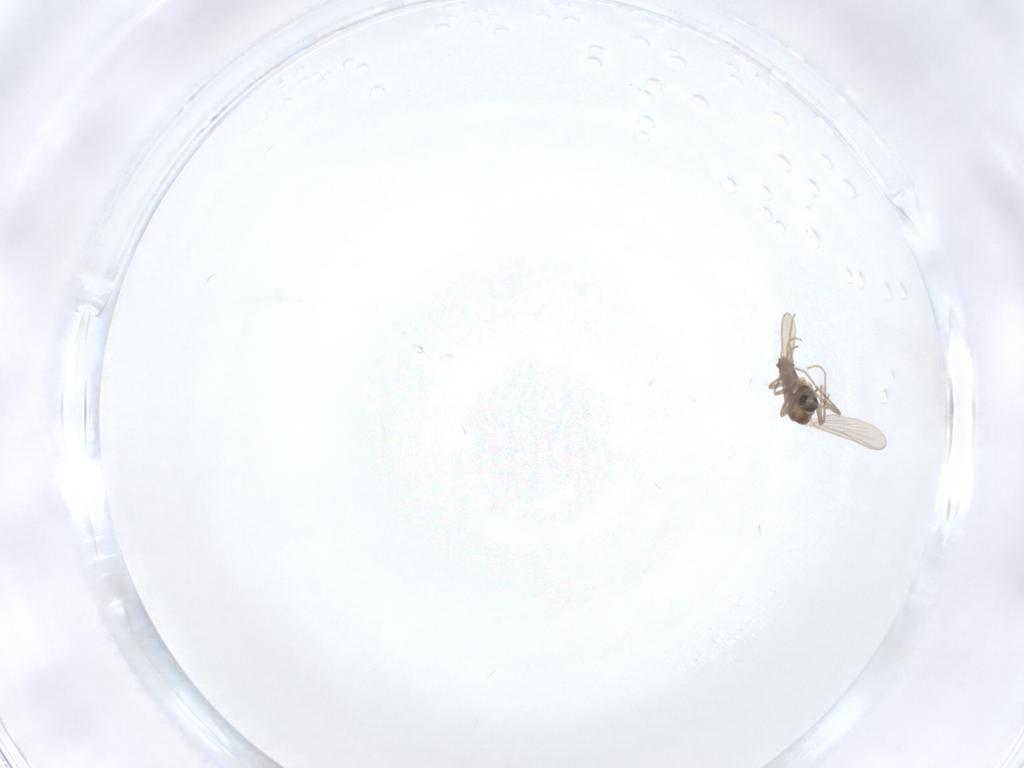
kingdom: Animalia
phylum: Arthropoda
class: Insecta
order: Diptera
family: Chironomidae
